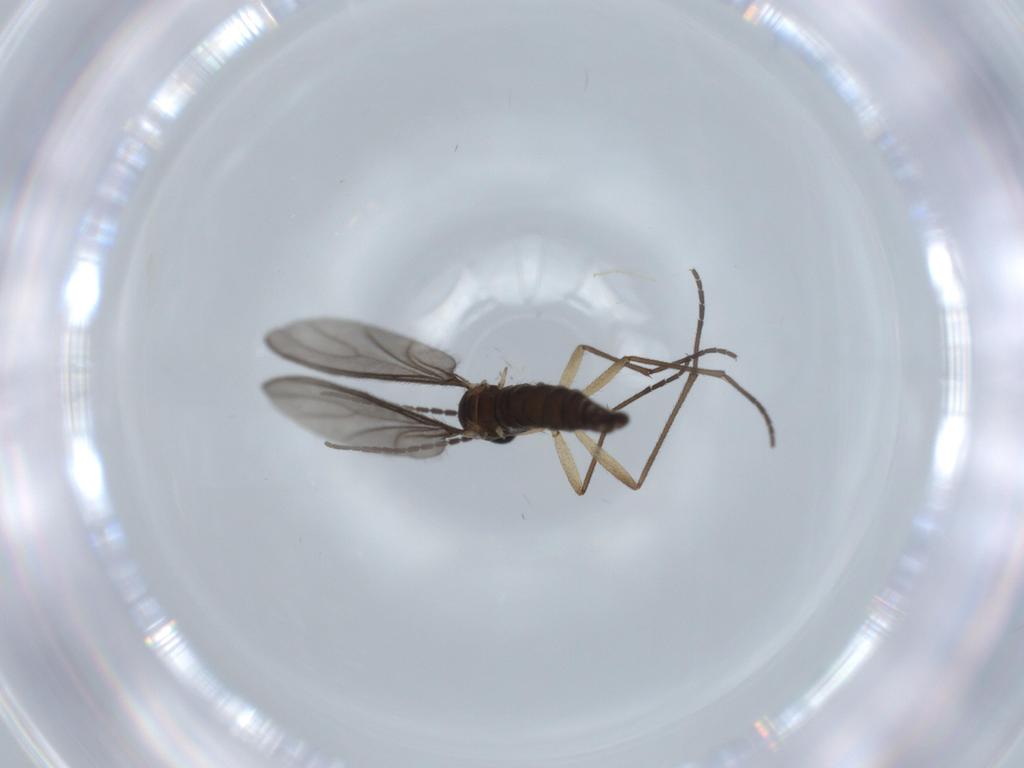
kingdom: Animalia
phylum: Arthropoda
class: Insecta
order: Diptera
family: Chironomidae
